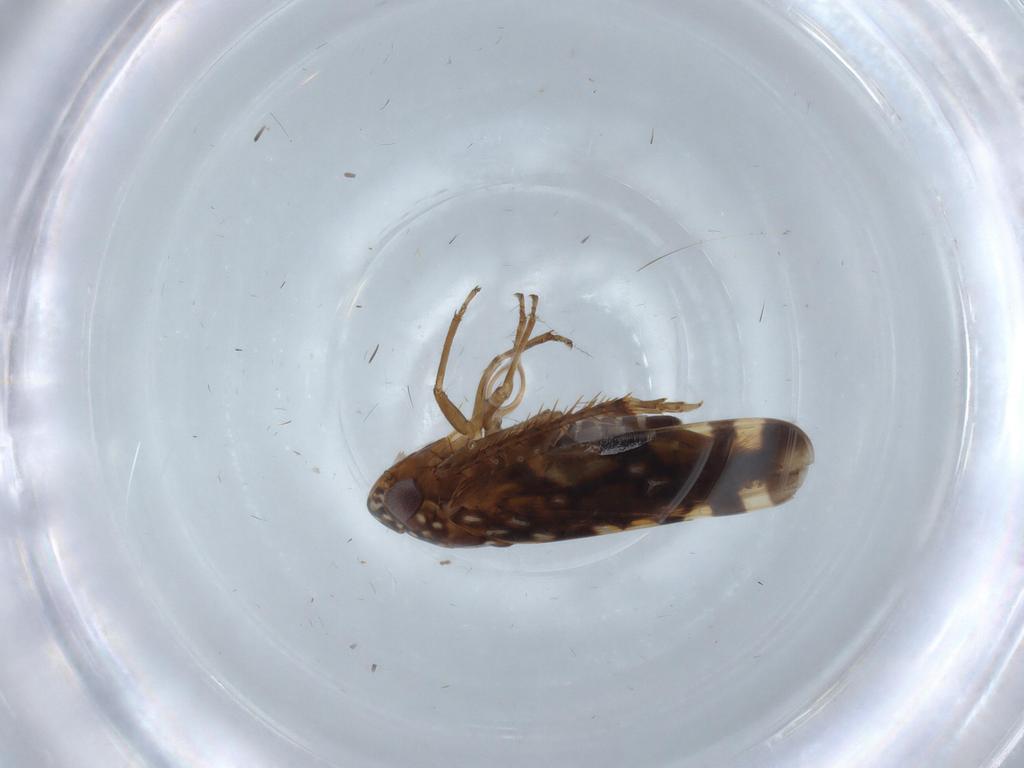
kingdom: Animalia
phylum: Arthropoda
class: Insecta
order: Hemiptera
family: Cicadellidae
